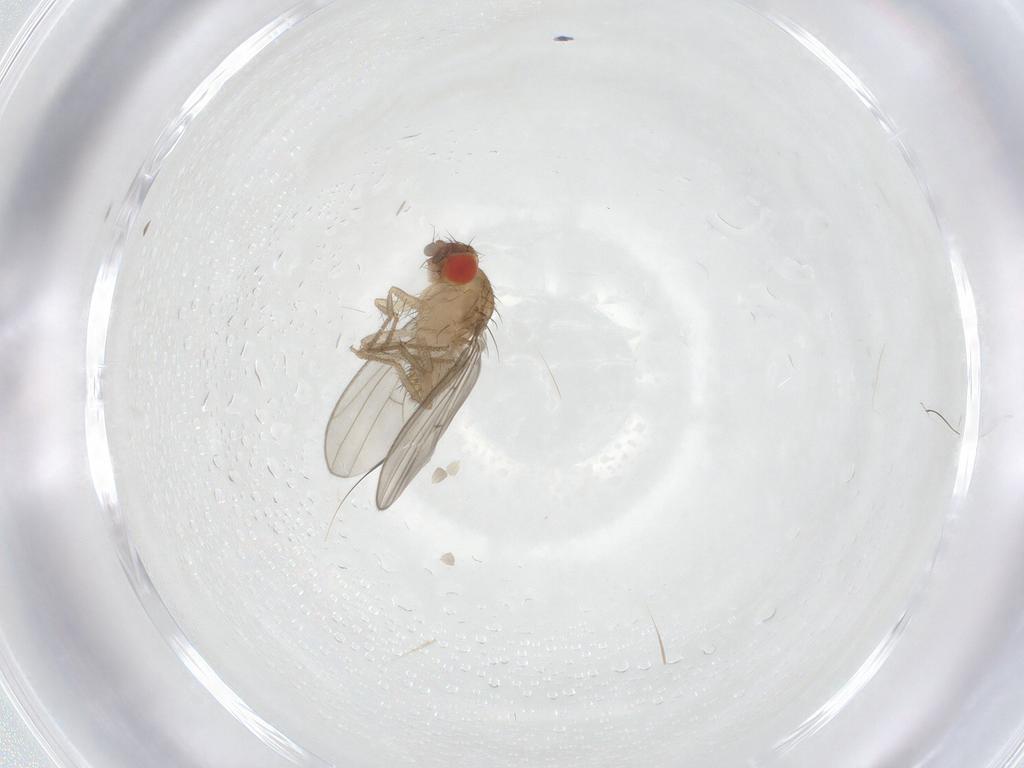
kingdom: Animalia
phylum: Arthropoda
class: Insecta
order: Diptera
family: Drosophilidae
